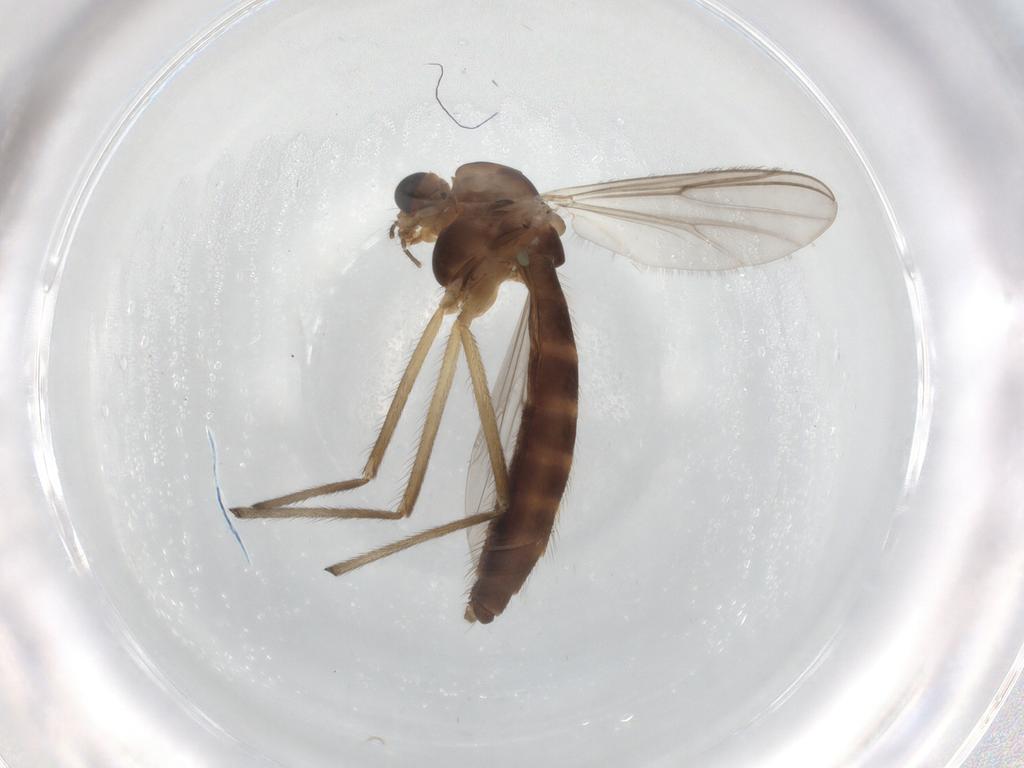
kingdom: Animalia
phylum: Arthropoda
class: Insecta
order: Diptera
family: Chironomidae
